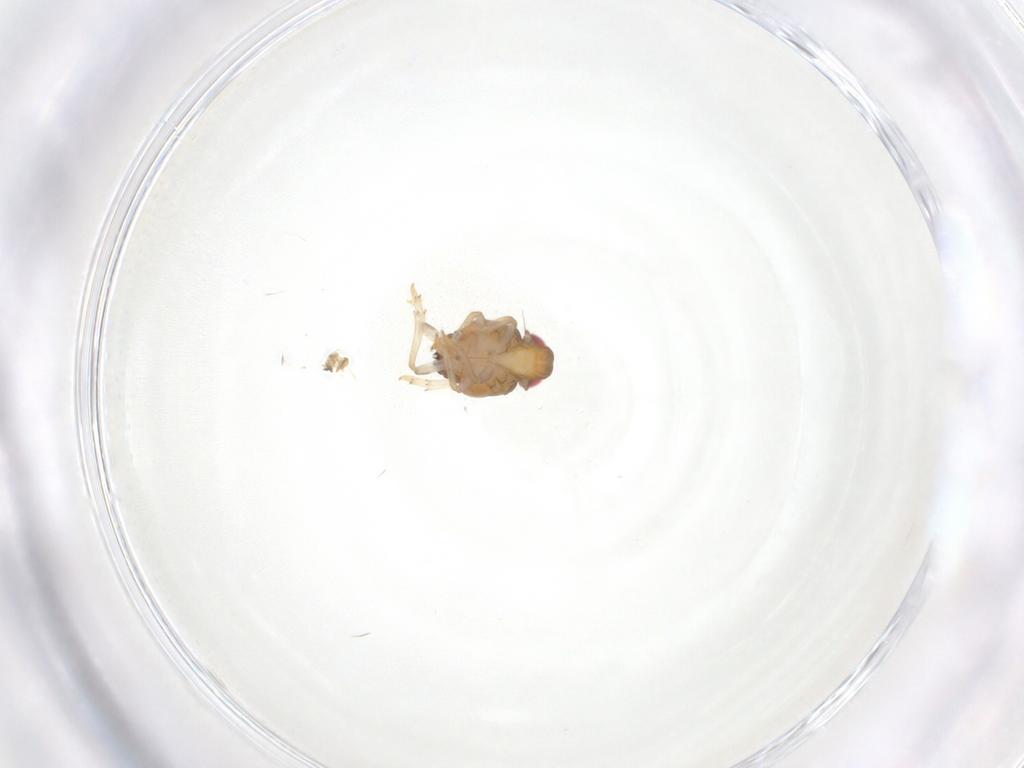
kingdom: Animalia
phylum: Arthropoda
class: Insecta
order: Hemiptera
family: Issidae
